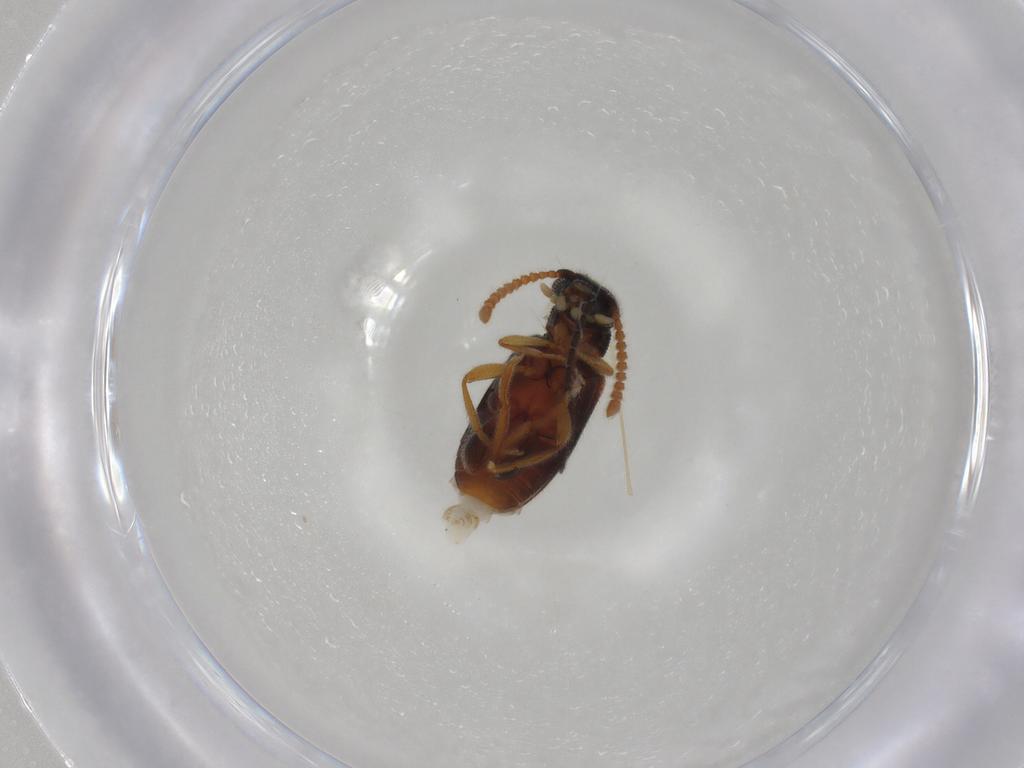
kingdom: Animalia
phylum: Arthropoda
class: Insecta
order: Coleoptera
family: Aderidae
